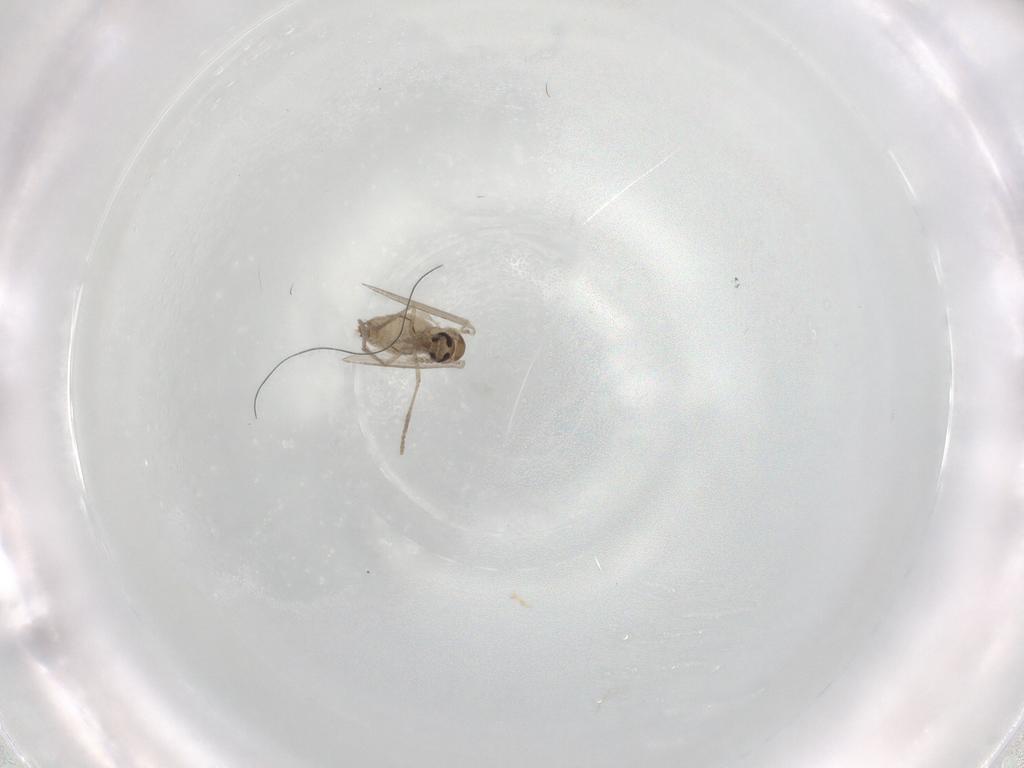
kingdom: Animalia
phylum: Arthropoda
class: Insecta
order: Diptera
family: Psychodidae
